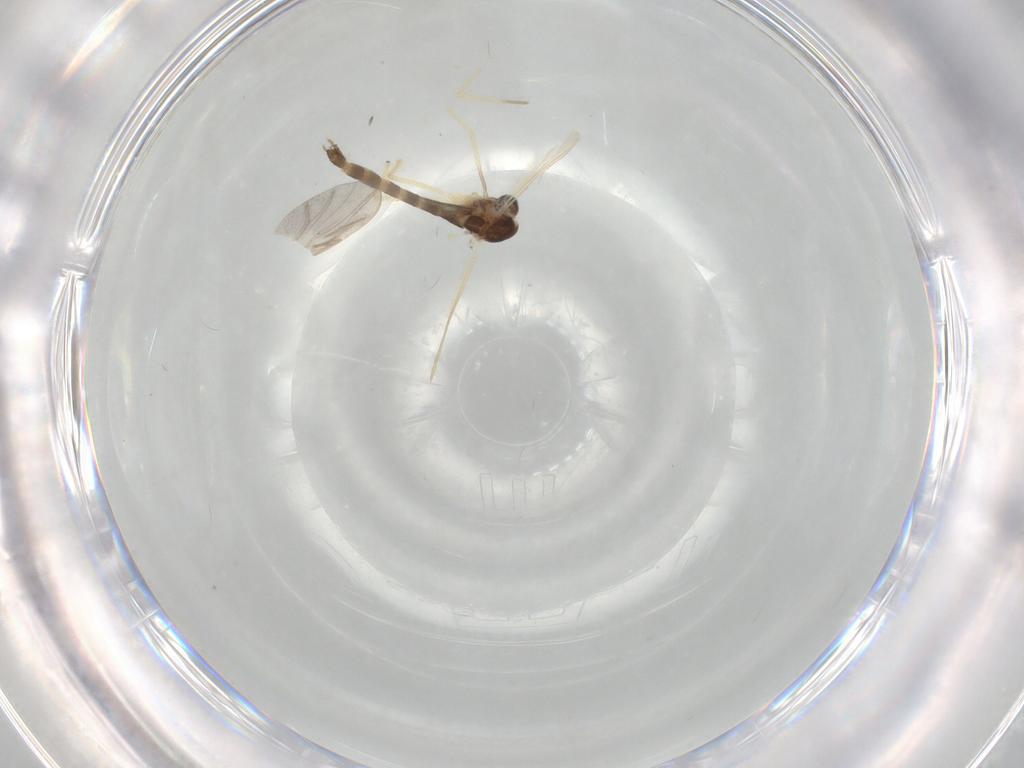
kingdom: Animalia
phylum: Arthropoda
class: Insecta
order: Diptera
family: Chironomidae
